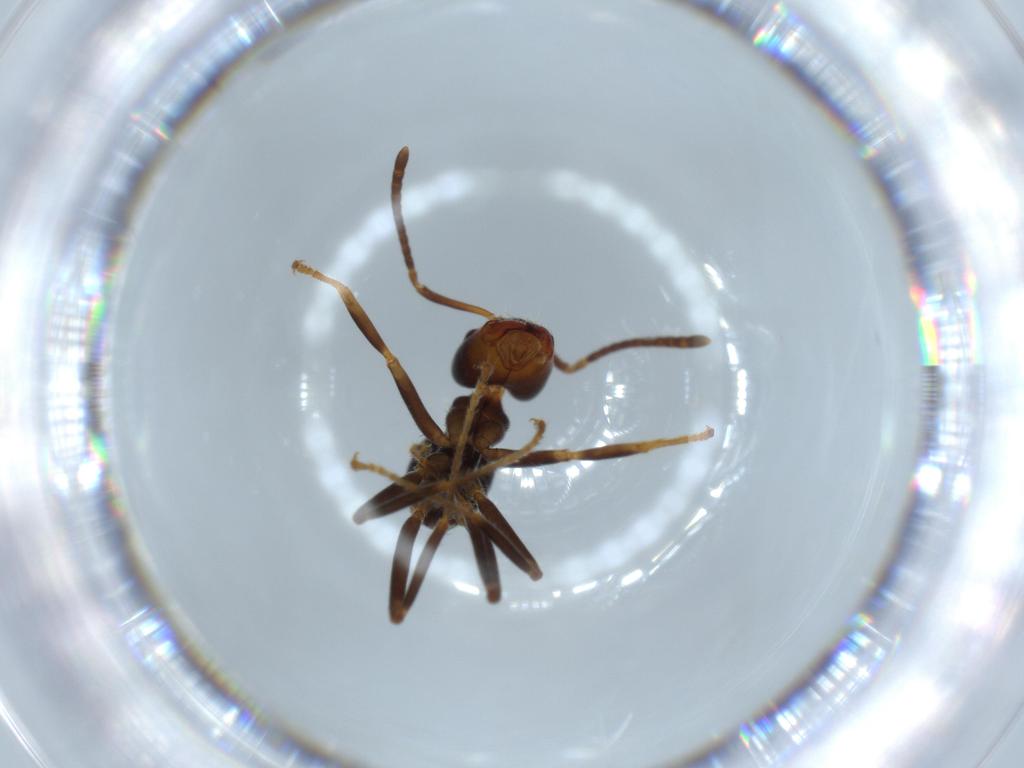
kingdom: Animalia
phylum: Arthropoda
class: Insecta
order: Hymenoptera
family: Formicidae
